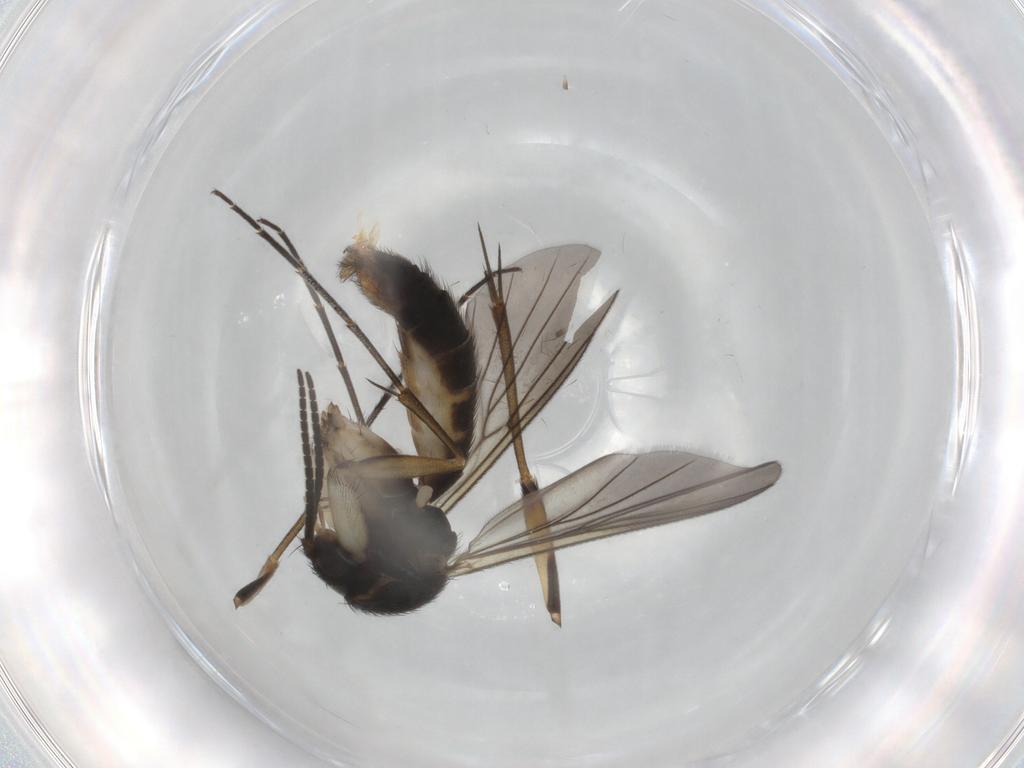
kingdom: Animalia
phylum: Arthropoda
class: Insecta
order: Diptera
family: Mycetophilidae
